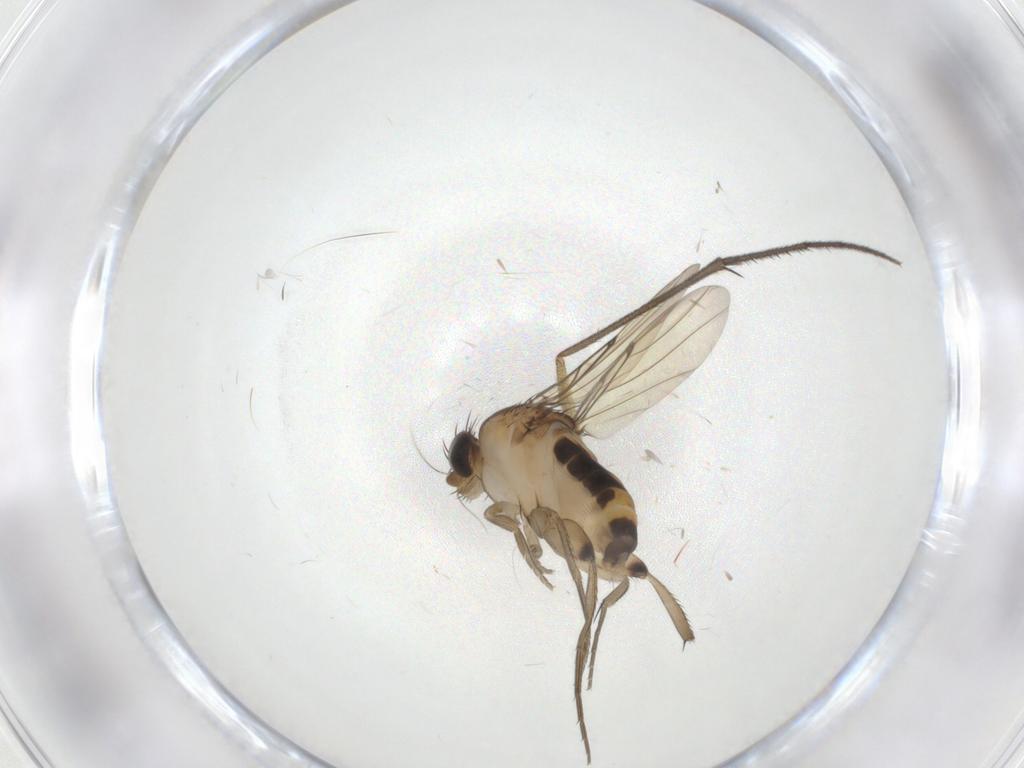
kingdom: Animalia
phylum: Arthropoda
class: Insecta
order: Diptera
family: Ditomyiidae
